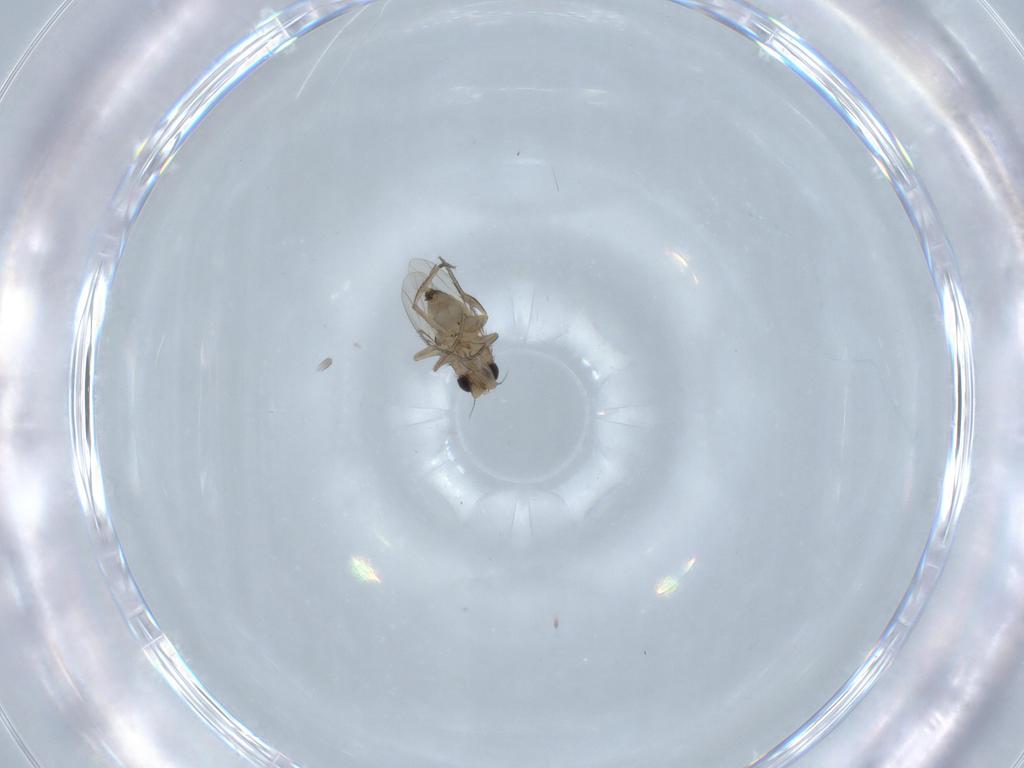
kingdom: Animalia
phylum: Arthropoda
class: Insecta
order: Diptera
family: Phoridae
